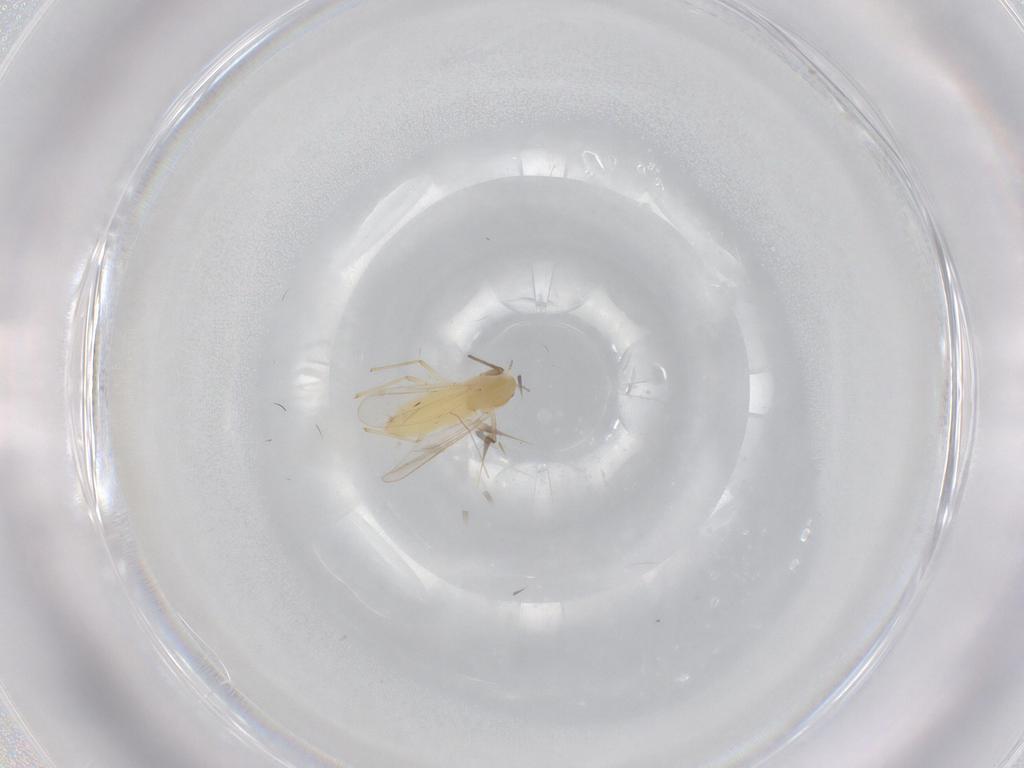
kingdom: Animalia
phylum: Arthropoda
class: Insecta
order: Diptera
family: Chironomidae
